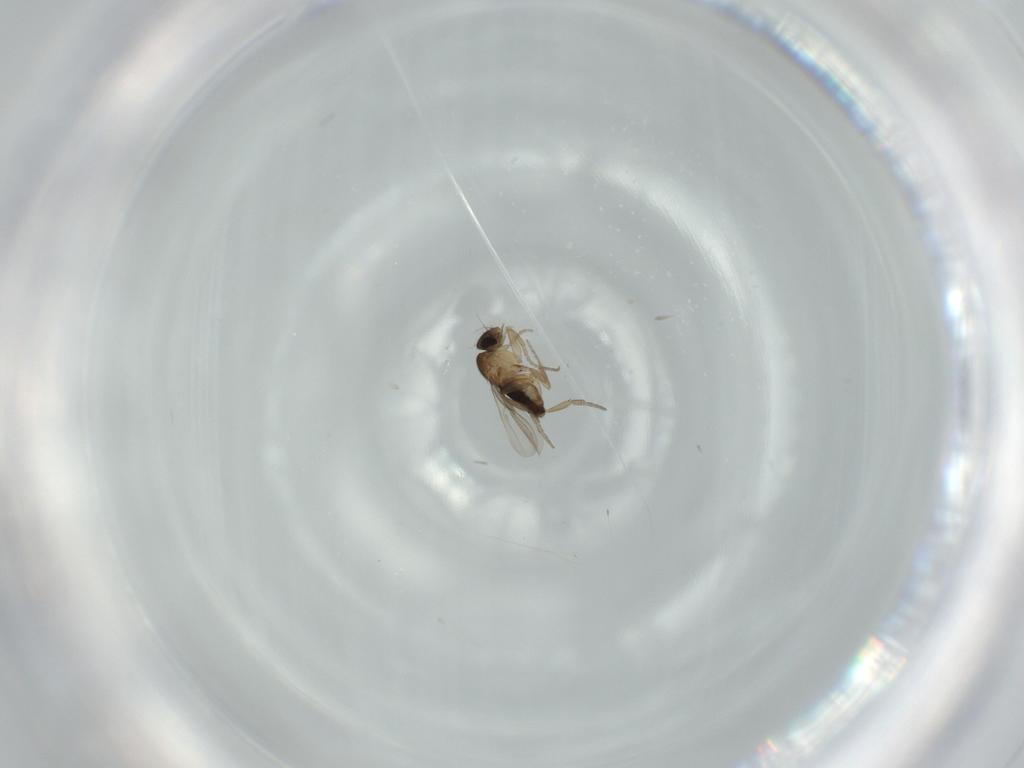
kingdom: Animalia
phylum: Arthropoda
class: Insecta
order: Diptera
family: Phoridae
